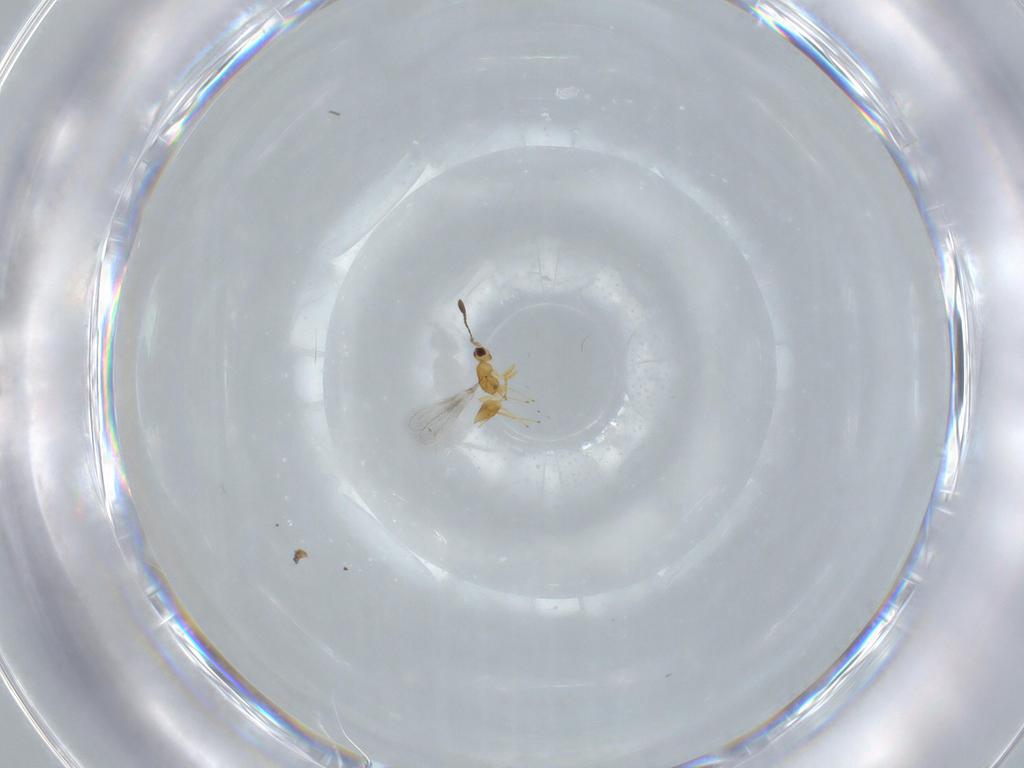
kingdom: Animalia
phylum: Arthropoda
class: Insecta
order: Hymenoptera
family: Mymaridae
